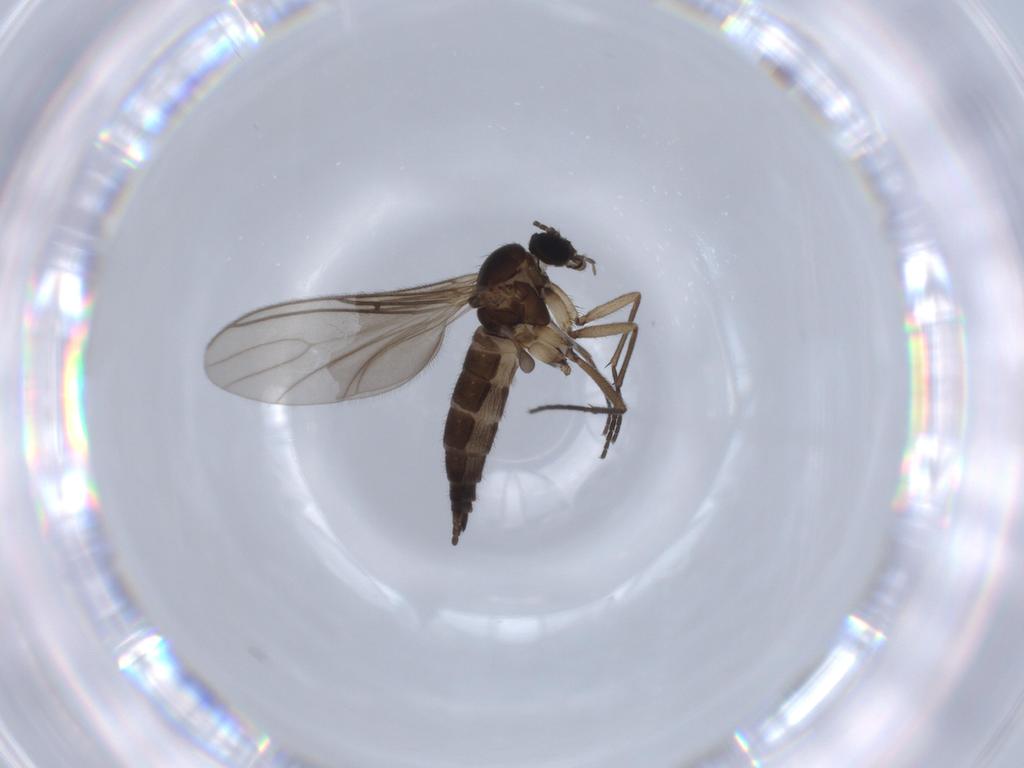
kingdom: Animalia
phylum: Arthropoda
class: Insecta
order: Diptera
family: Sciaridae
